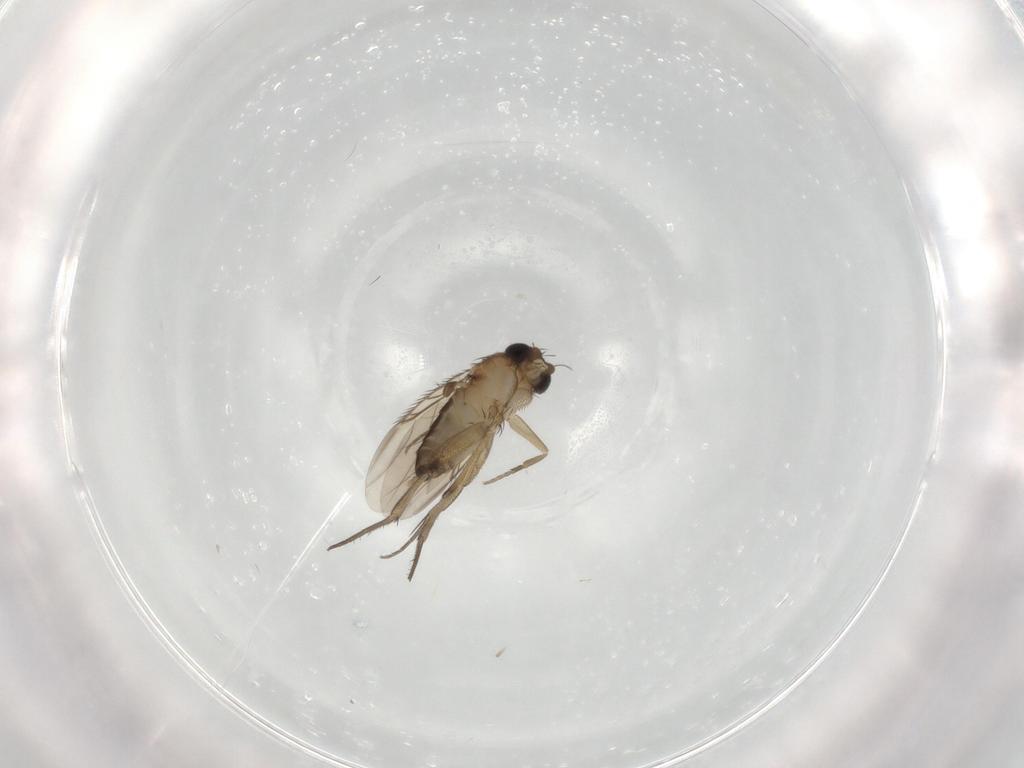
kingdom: Animalia
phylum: Arthropoda
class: Insecta
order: Diptera
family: Phoridae
